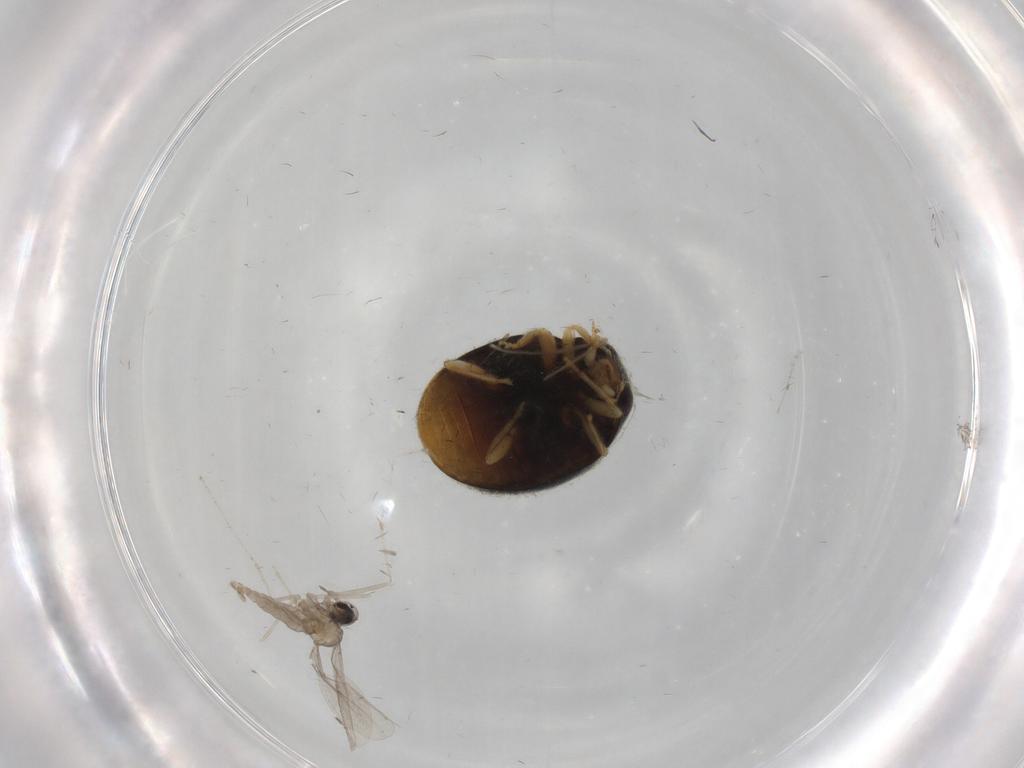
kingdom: Animalia
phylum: Arthropoda
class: Insecta
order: Coleoptera
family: Coccinellidae
